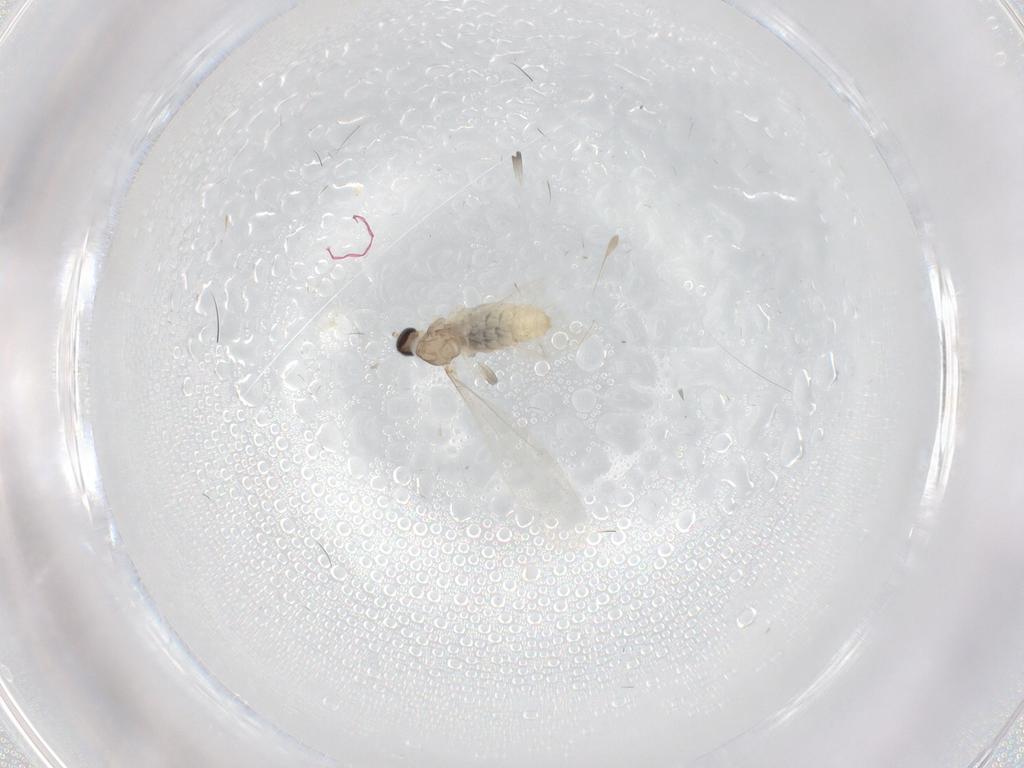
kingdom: Animalia
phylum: Arthropoda
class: Insecta
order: Diptera
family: Cecidomyiidae
